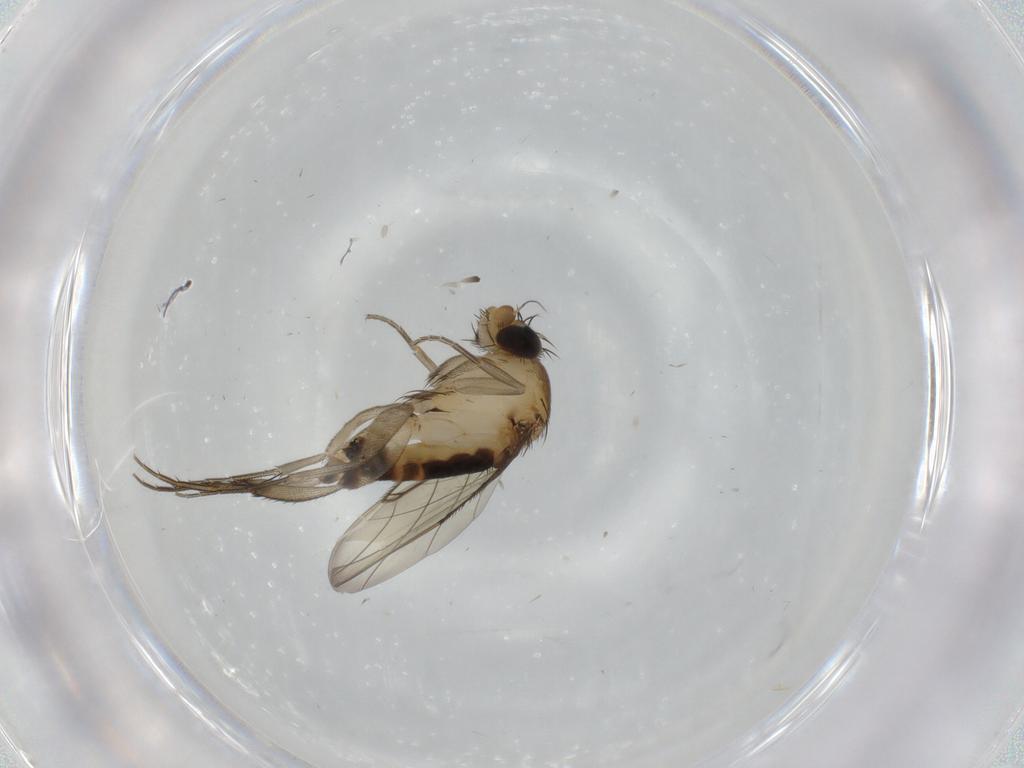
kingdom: Animalia
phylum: Arthropoda
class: Insecta
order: Diptera
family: Phoridae
